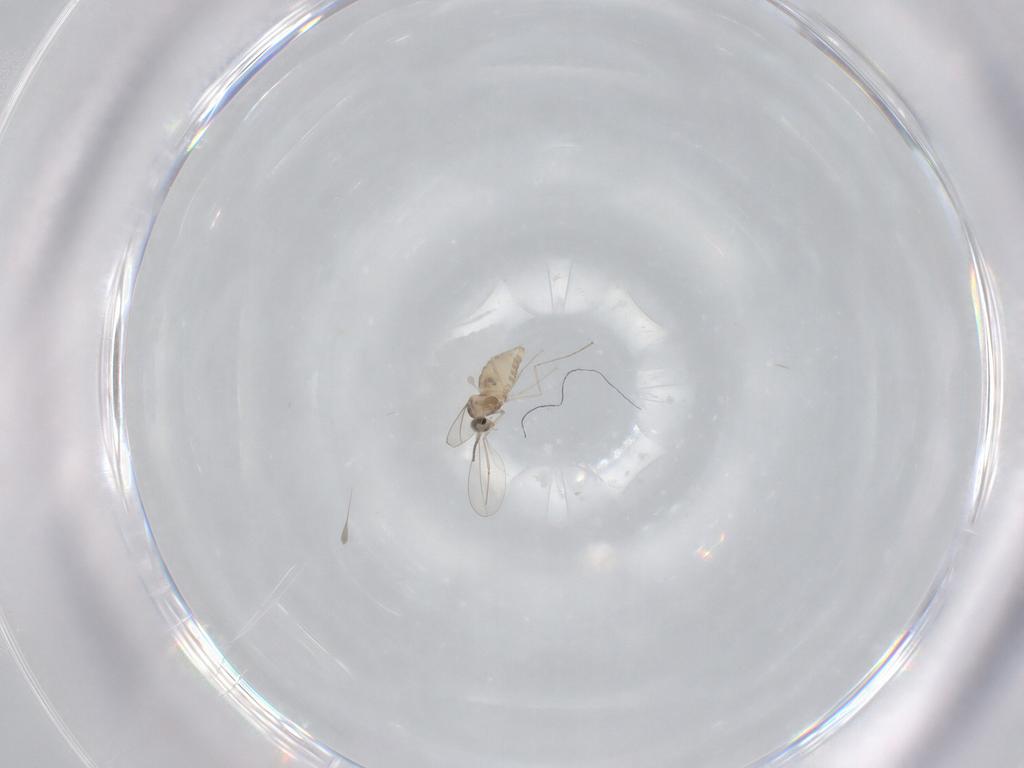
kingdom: Animalia
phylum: Arthropoda
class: Insecta
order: Diptera
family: Cecidomyiidae
